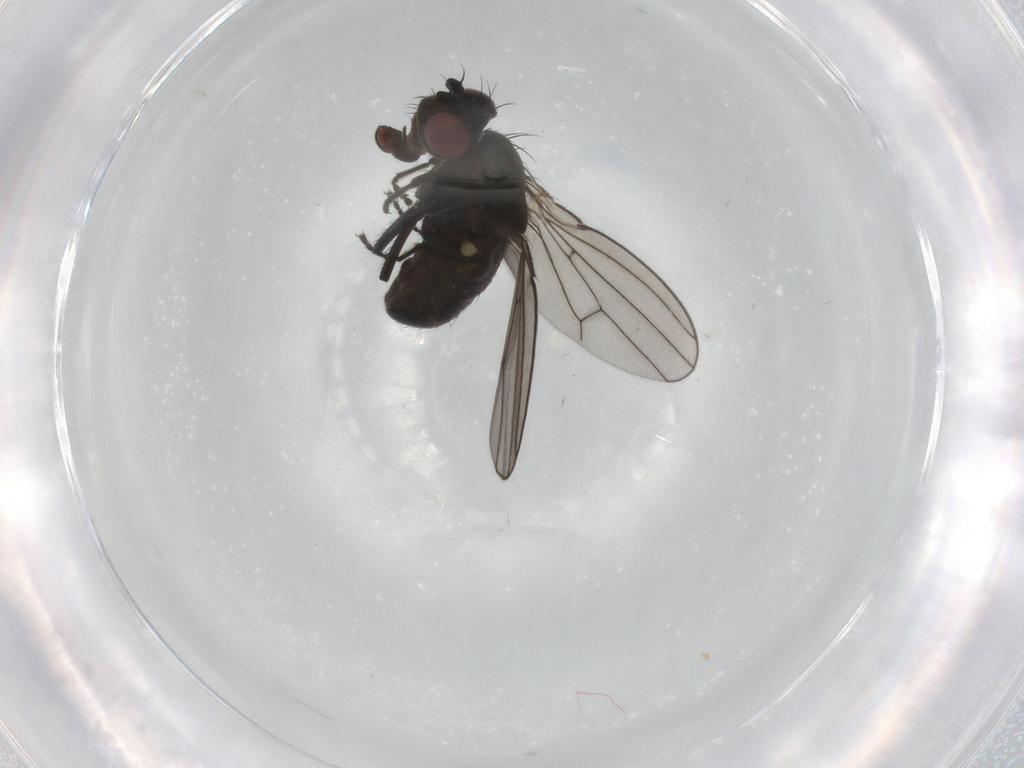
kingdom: Animalia
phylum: Arthropoda
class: Insecta
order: Diptera
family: Ephydridae
